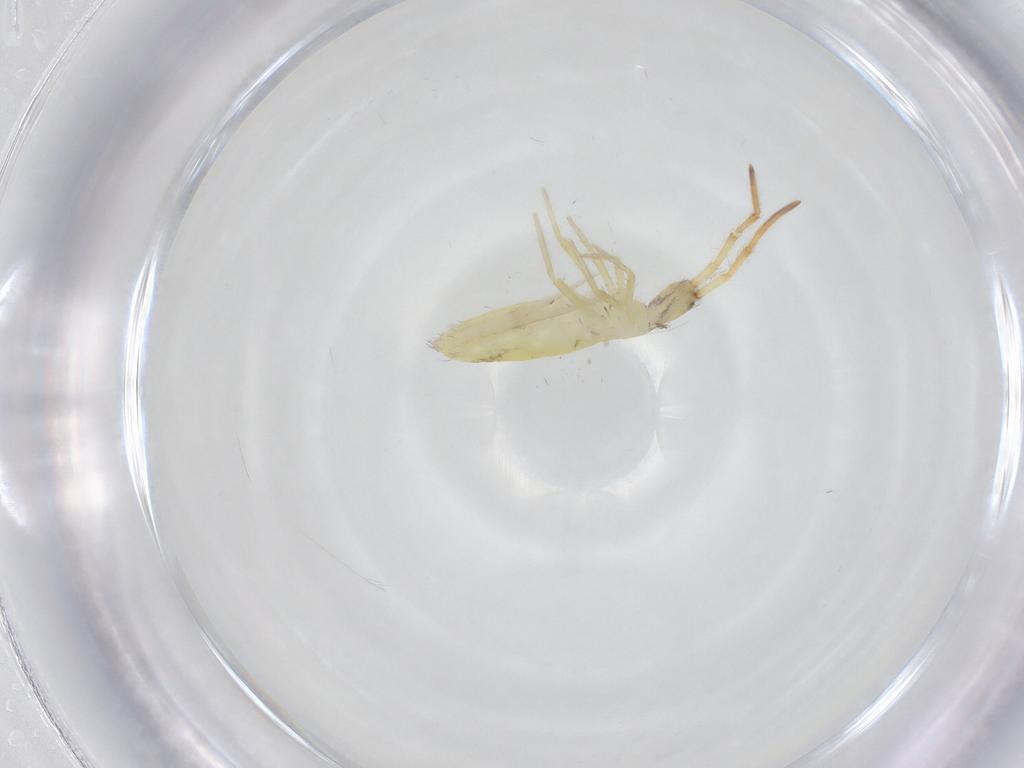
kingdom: Animalia
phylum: Arthropoda
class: Collembola
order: Entomobryomorpha
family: Entomobryidae
